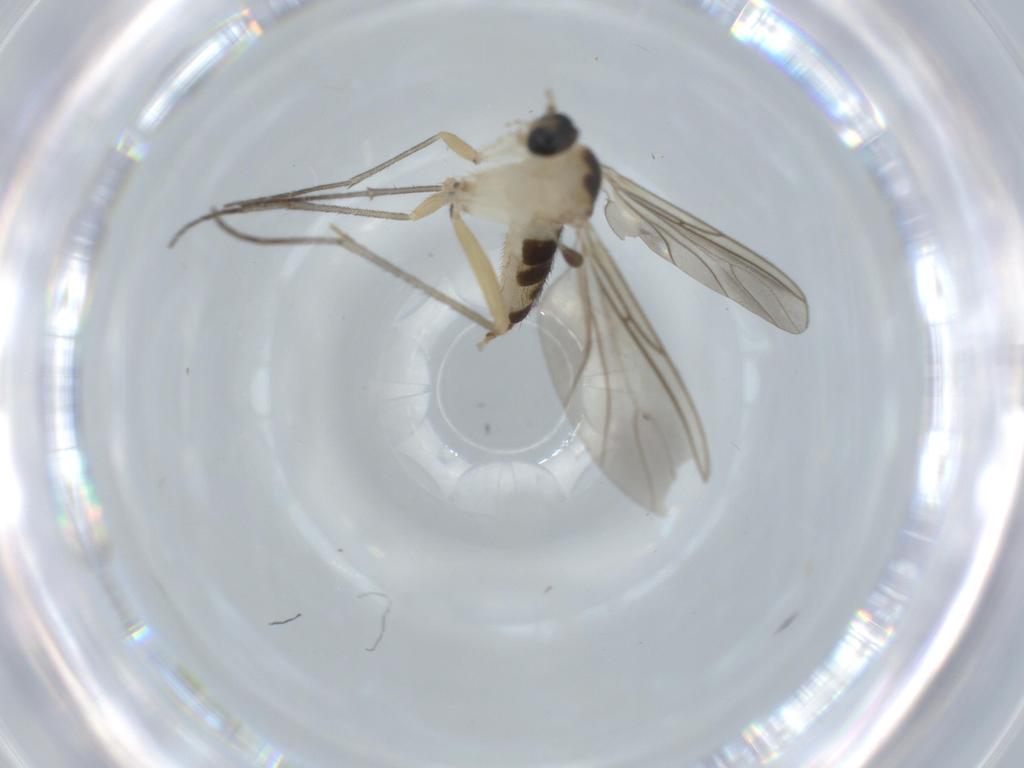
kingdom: Animalia
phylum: Arthropoda
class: Insecta
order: Diptera
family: Sciaridae
